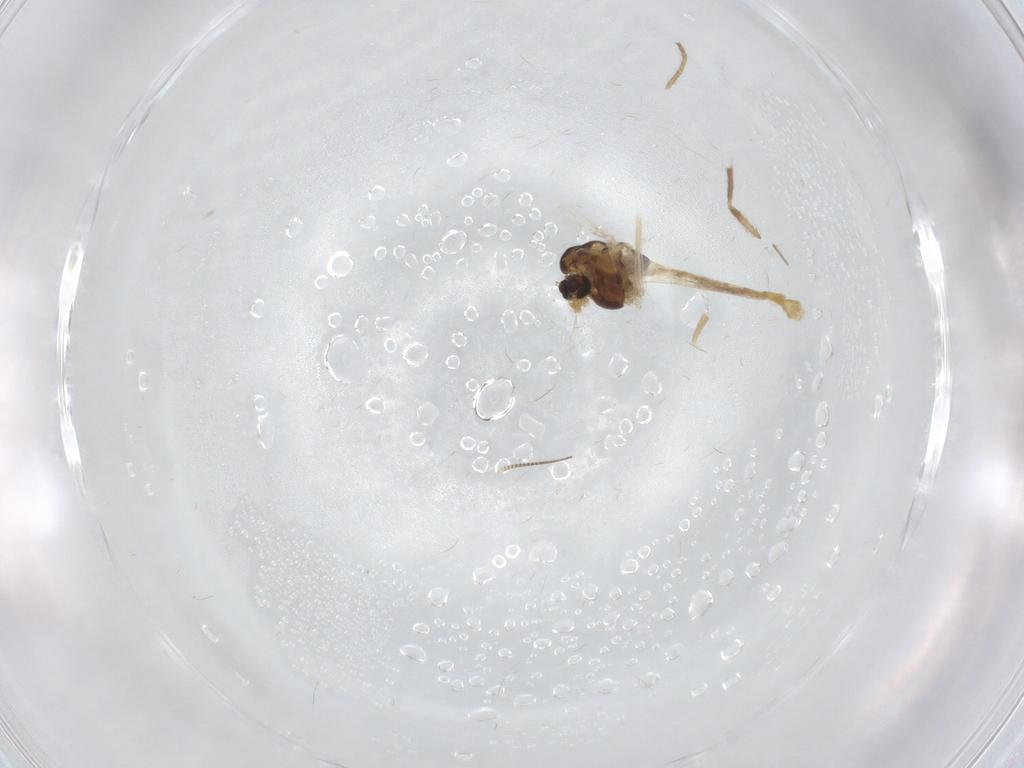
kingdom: Animalia
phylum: Arthropoda
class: Insecta
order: Diptera
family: Chironomidae
